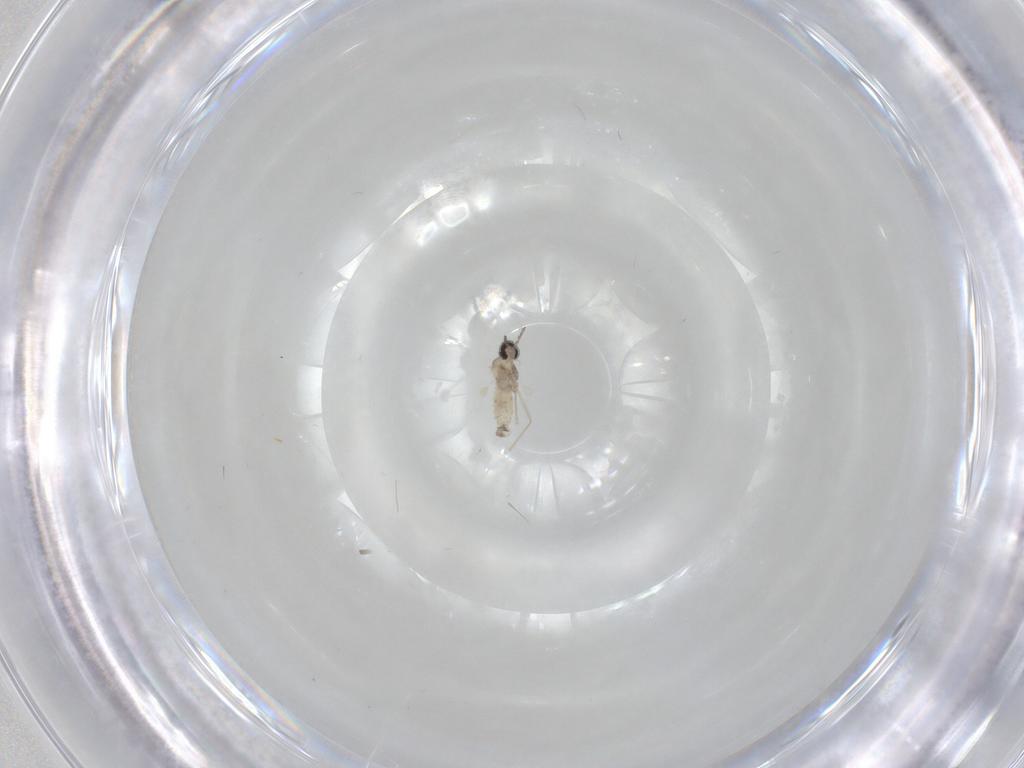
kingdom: Animalia
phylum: Arthropoda
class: Insecta
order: Diptera
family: Cecidomyiidae
